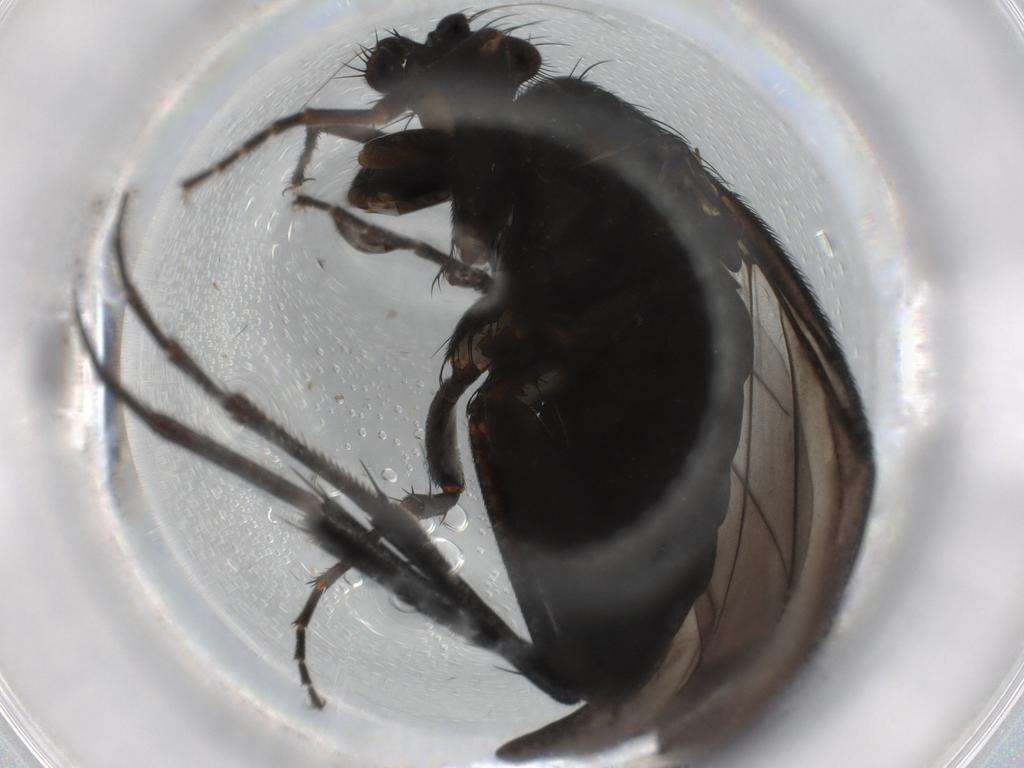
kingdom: Animalia
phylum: Arthropoda
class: Insecta
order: Diptera
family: Phoridae
